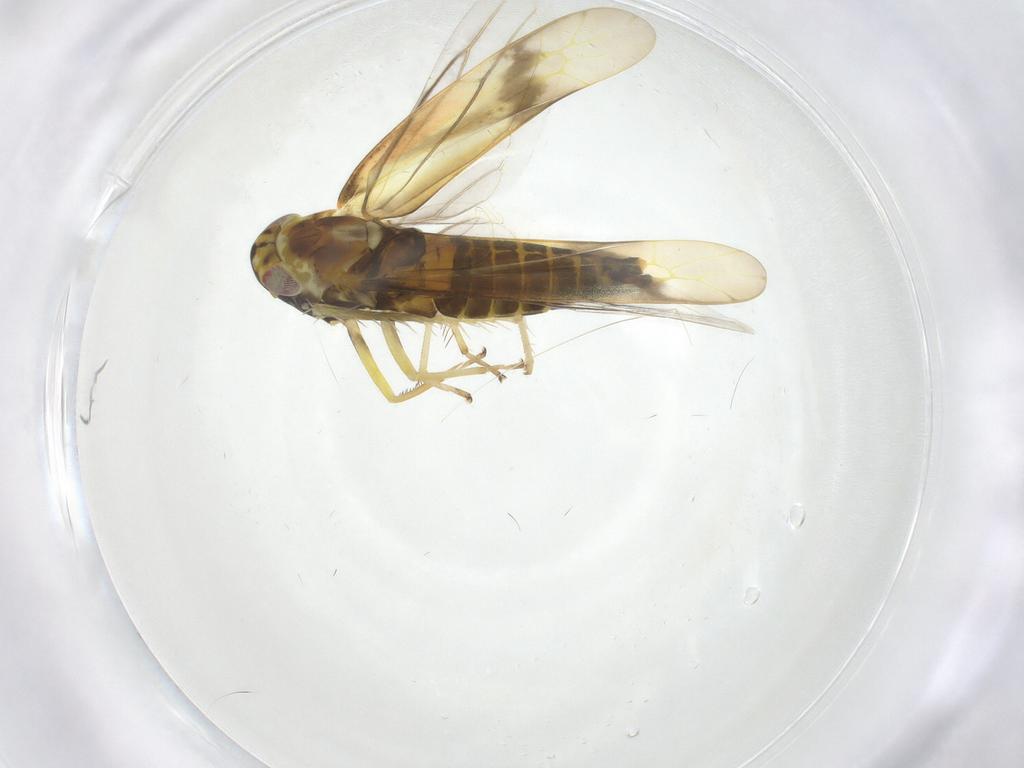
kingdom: Animalia
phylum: Arthropoda
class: Insecta
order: Hemiptera
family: Cicadellidae
